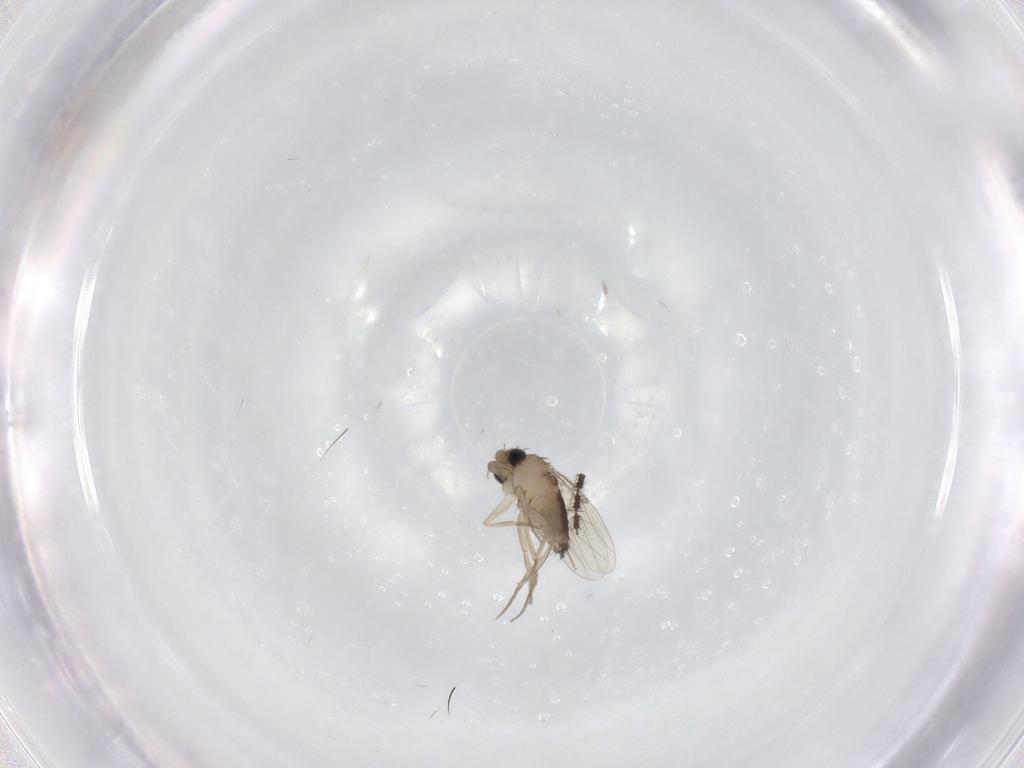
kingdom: Animalia
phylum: Arthropoda
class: Insecta
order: Diptera
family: Phoridae
